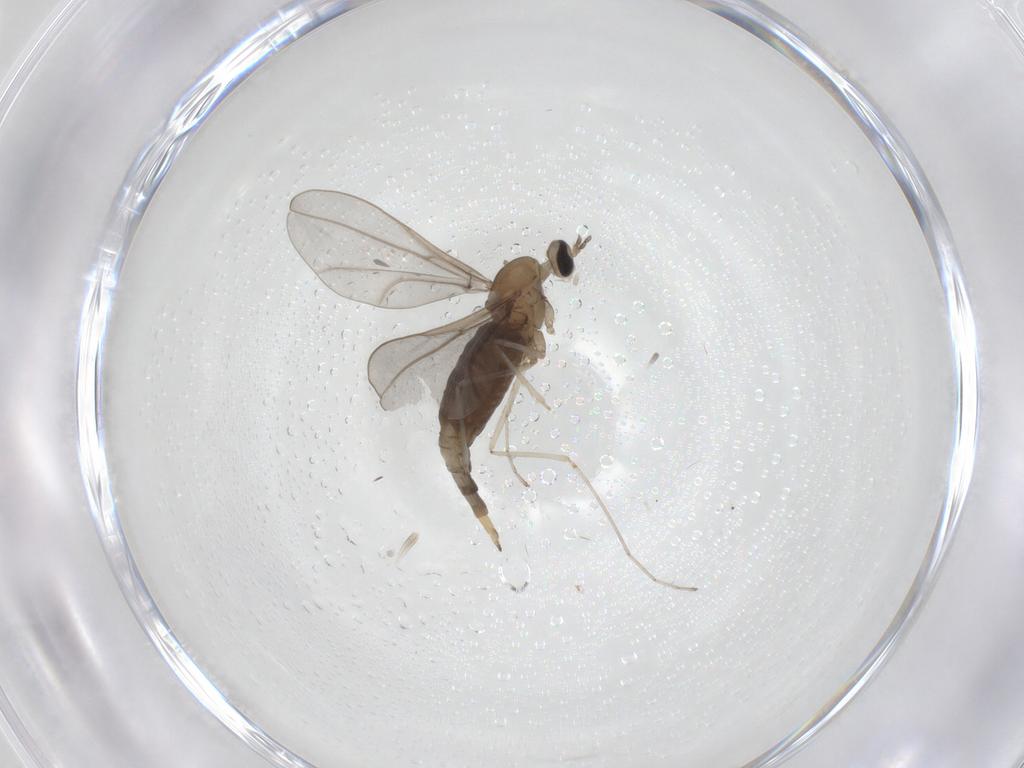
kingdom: Animalia
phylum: Arthropoda
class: Insecta
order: Diptera
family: Cecidomyiidae
